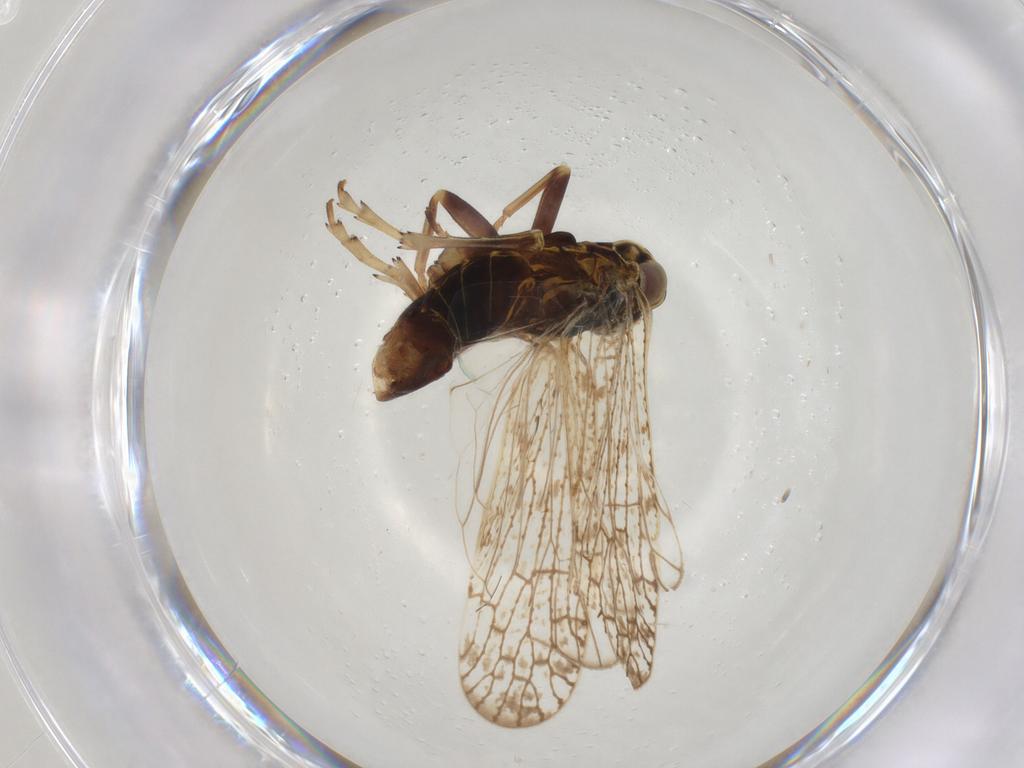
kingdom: Animalia
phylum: Arthropoda
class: Insecta
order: Hemiptera
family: Cixiidae
